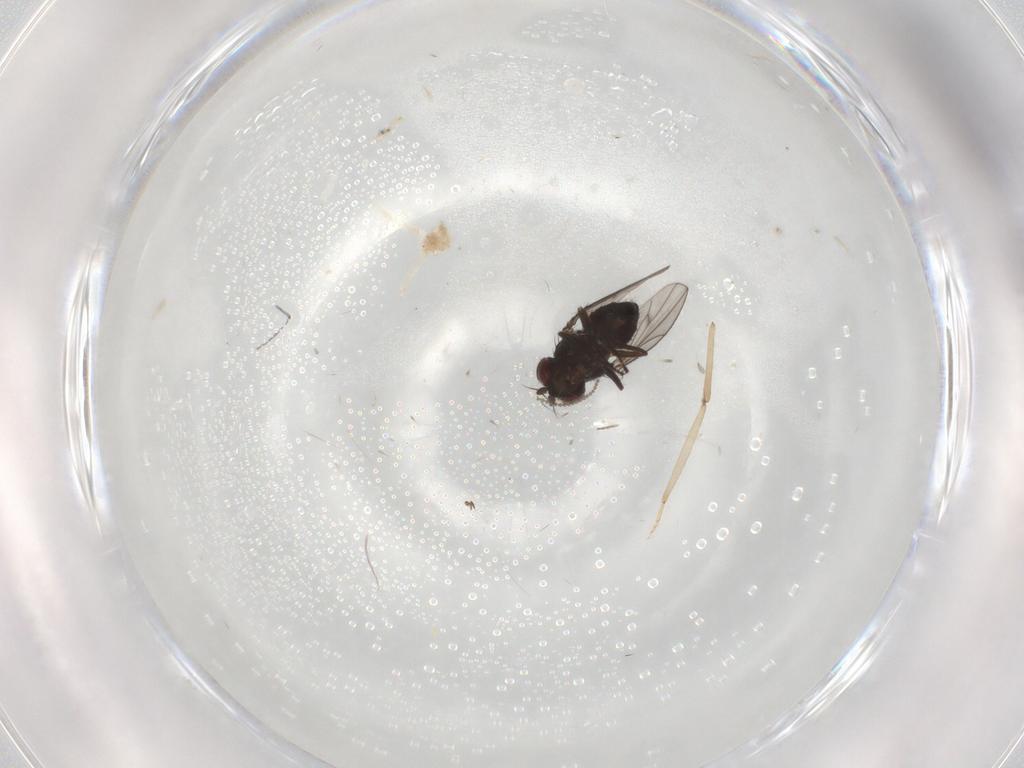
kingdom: Animalia
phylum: Arthropoda
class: Insecta
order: Diptera
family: Ephydridae
